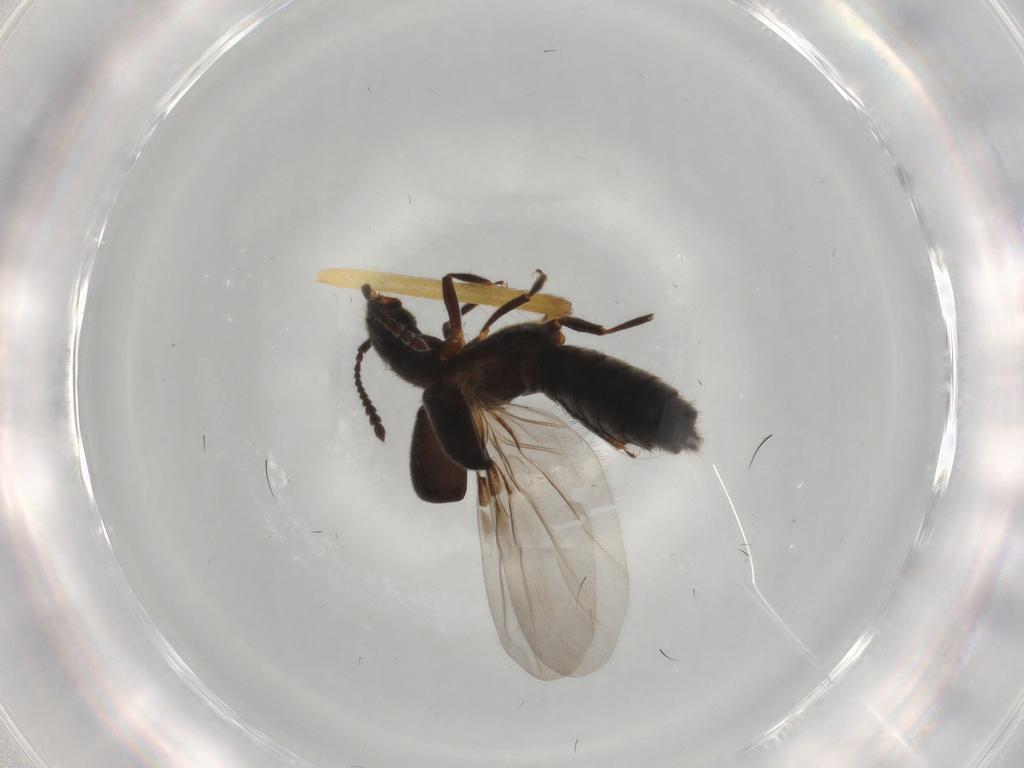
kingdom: Animalia
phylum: Arthropoda
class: Insecta
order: Coleoptera
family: Staphylinidae
